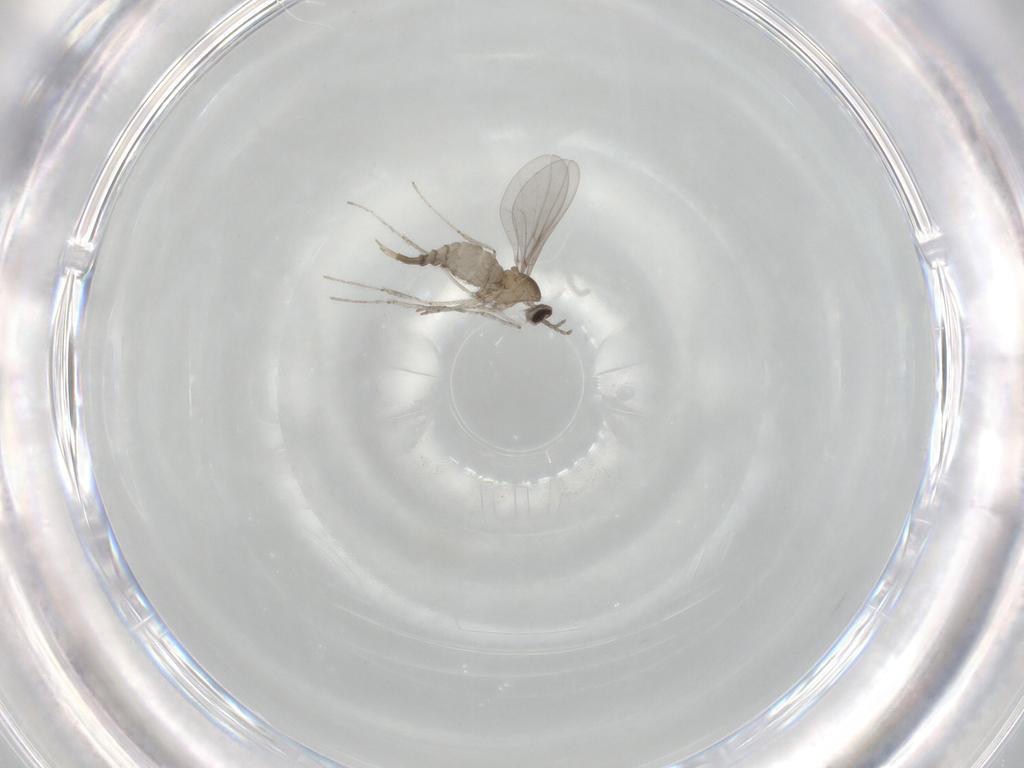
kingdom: Animalia
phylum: Arthropoda
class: Insecta
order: Diptera
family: Cecidomyiidae
